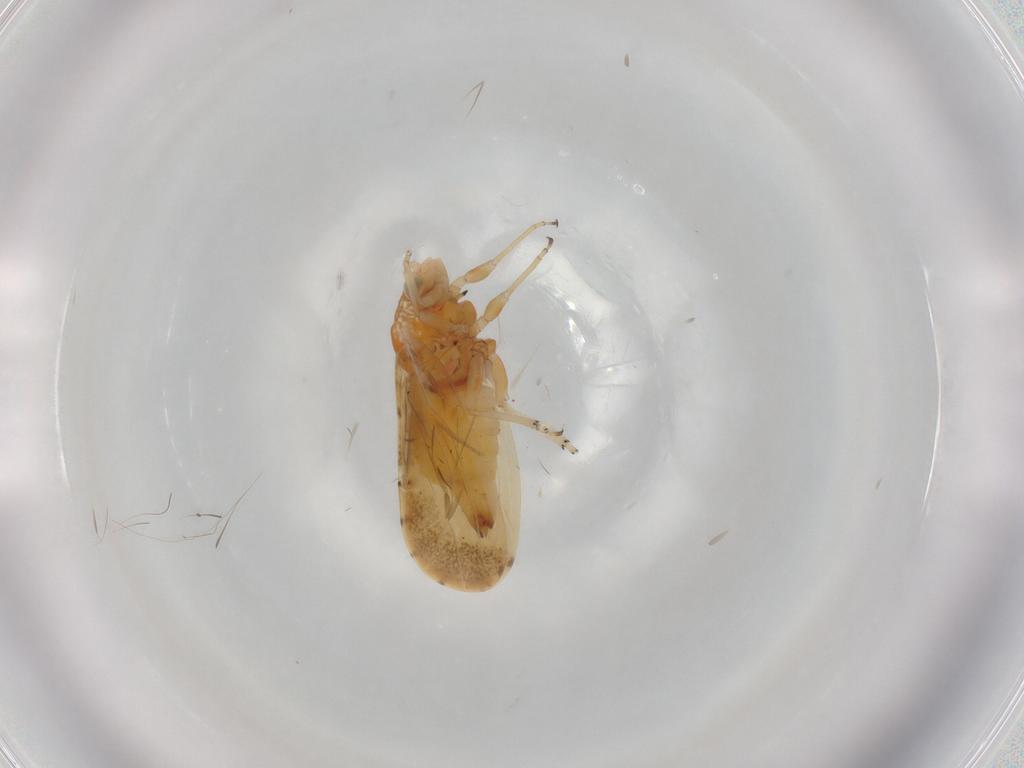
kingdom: Animalia
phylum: Arthropoda
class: Insecta
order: Hemiptera
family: Psyllidae
